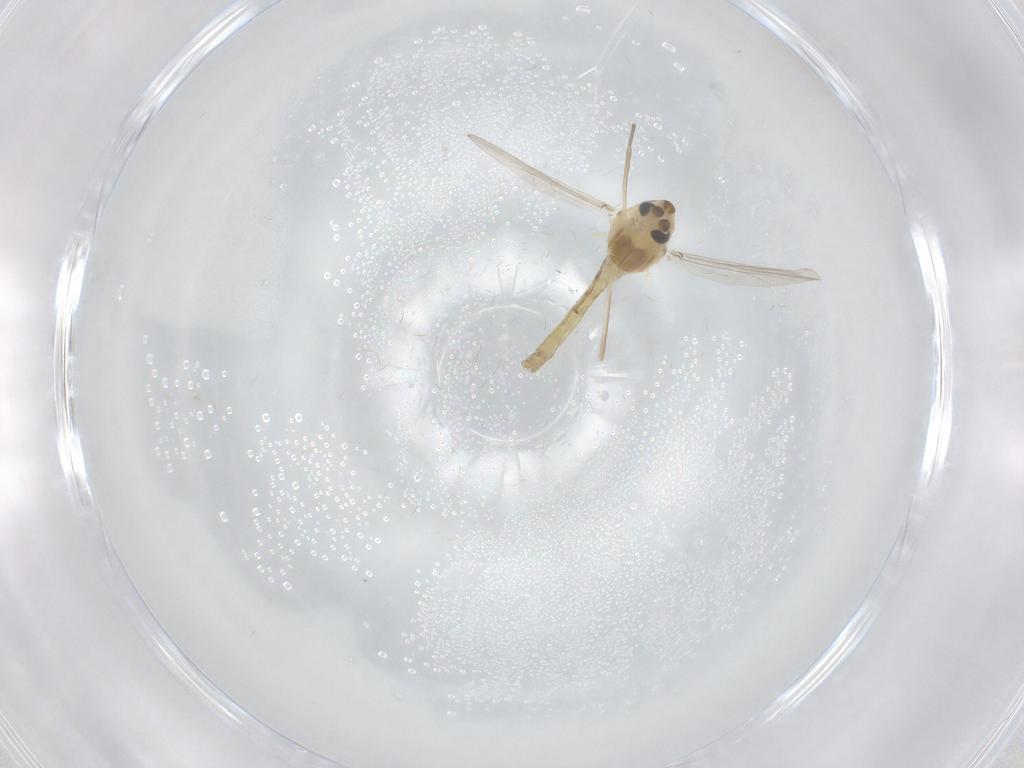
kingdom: Animalia
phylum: Arthropoda
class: Insecta
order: Diptera
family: Chironomidae
